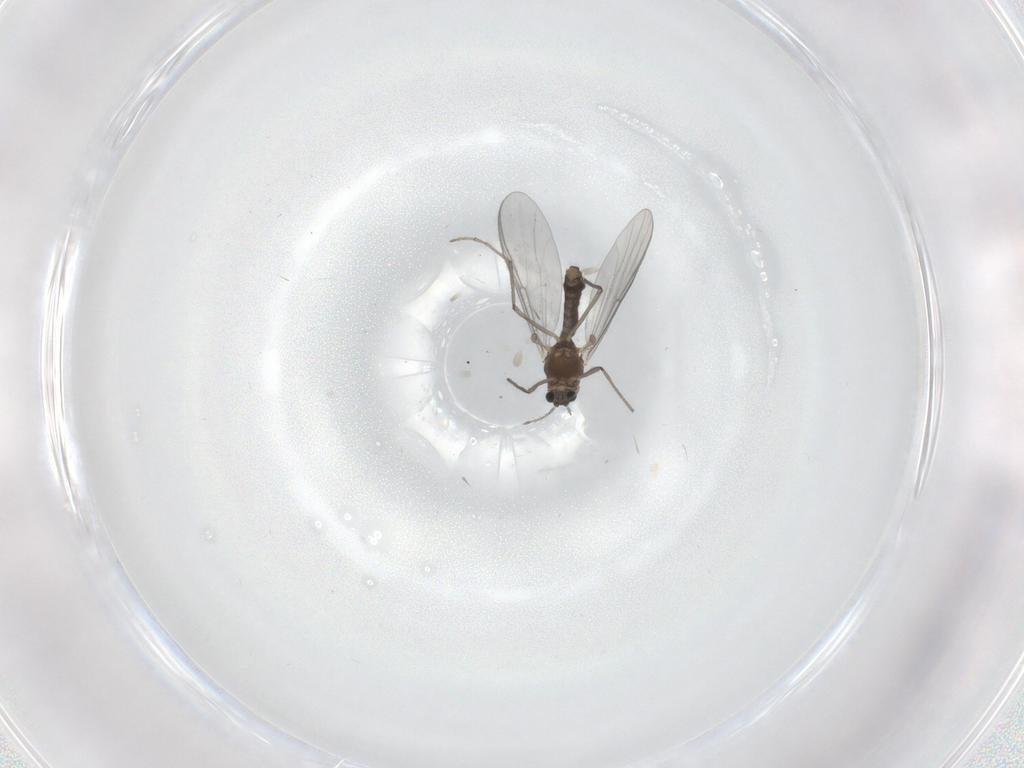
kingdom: Animalia
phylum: Arthropoda
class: Insecta
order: Diptera
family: Chironomidae
